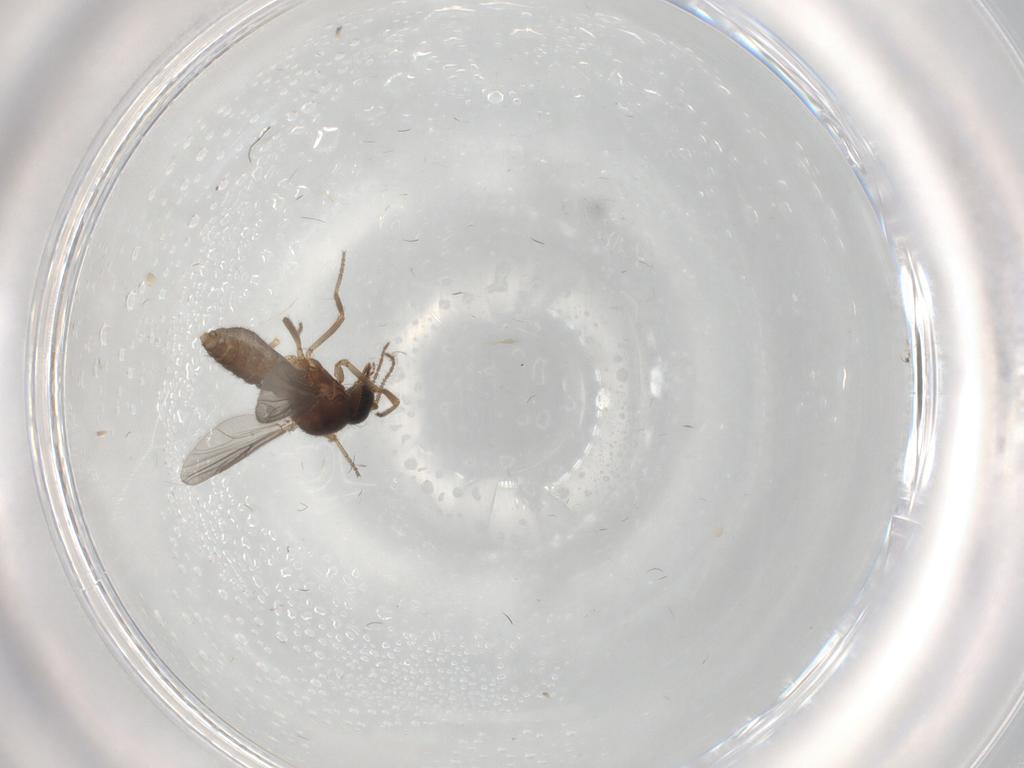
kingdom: Animalia
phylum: Arthropoda
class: Insecta
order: Diptera
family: Ceratopogonidae
